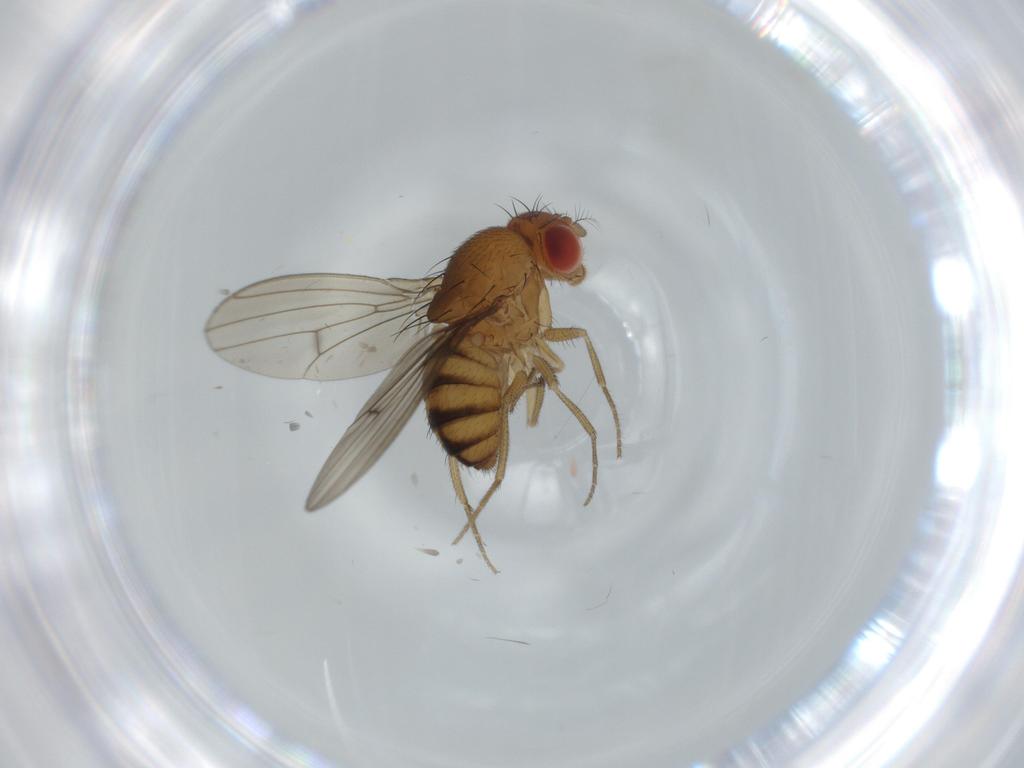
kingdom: Animalia
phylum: Arthropoda
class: Insecta
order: Diptera
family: Drosophilidae
